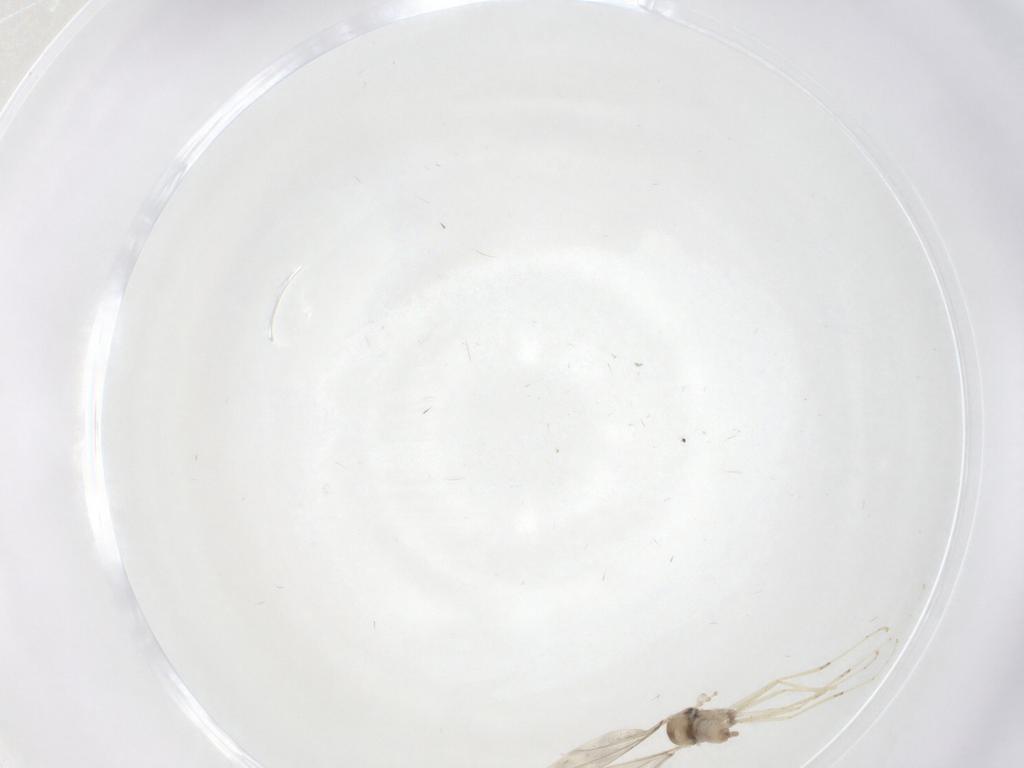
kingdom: Animalia
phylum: Arthropoda
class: Insecta
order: Diptera
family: Cecidomyiidae
